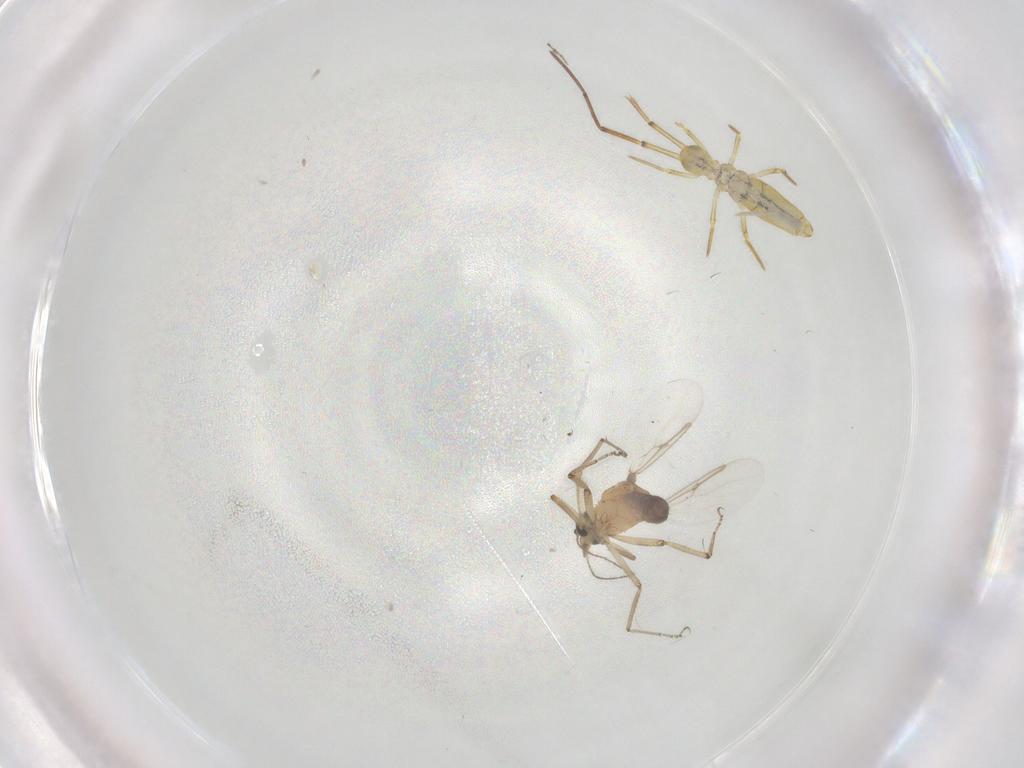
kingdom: Animalia
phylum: Arthropoda
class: Insecta
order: Diptera
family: Ceratopogonidae
